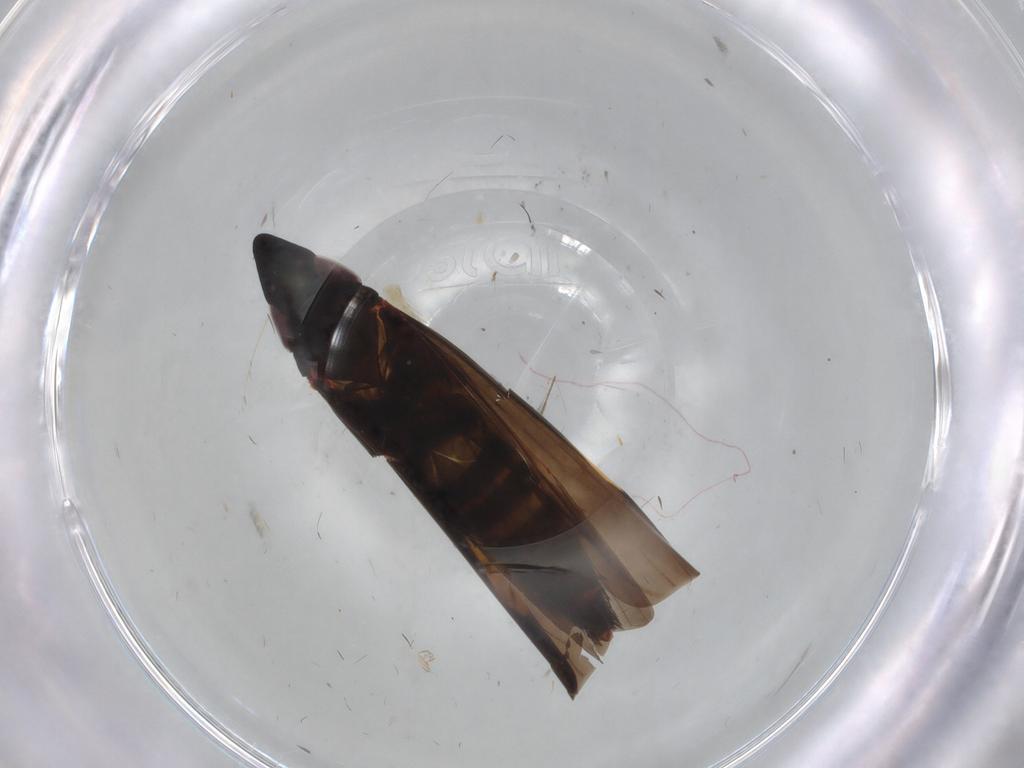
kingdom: Animalia
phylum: Arthropoda
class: Insecta
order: Hemiptera
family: Cicadellidae
